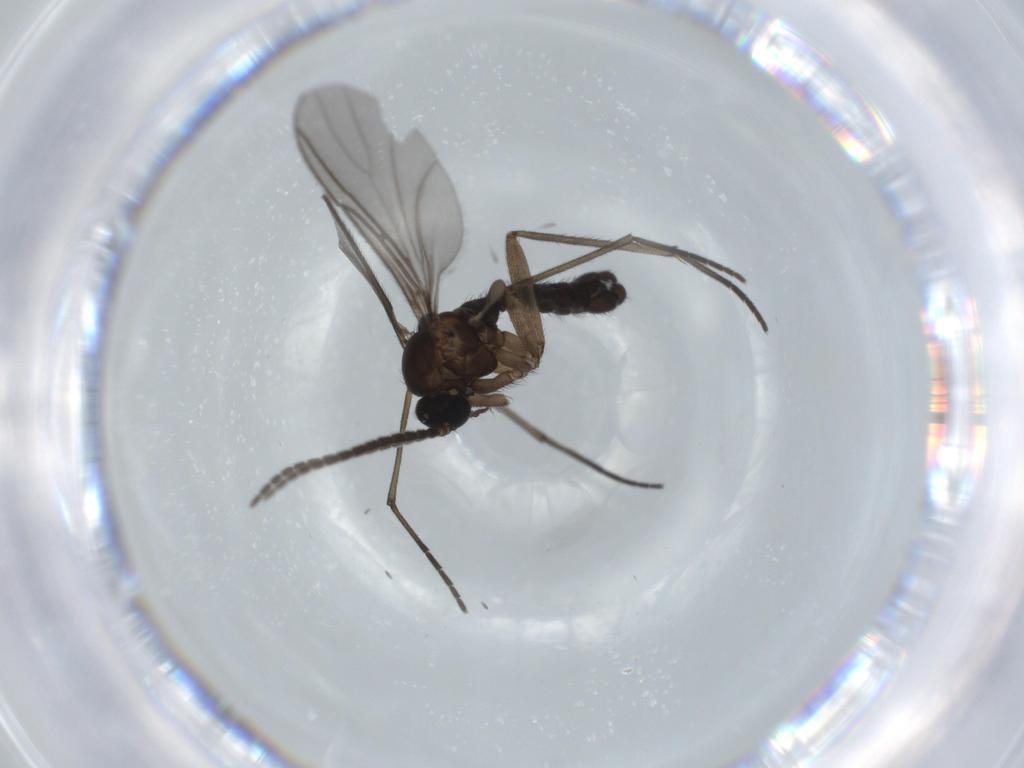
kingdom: Animalia
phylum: Arthropoda
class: Insecta
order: Diptera
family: Sciaridae
